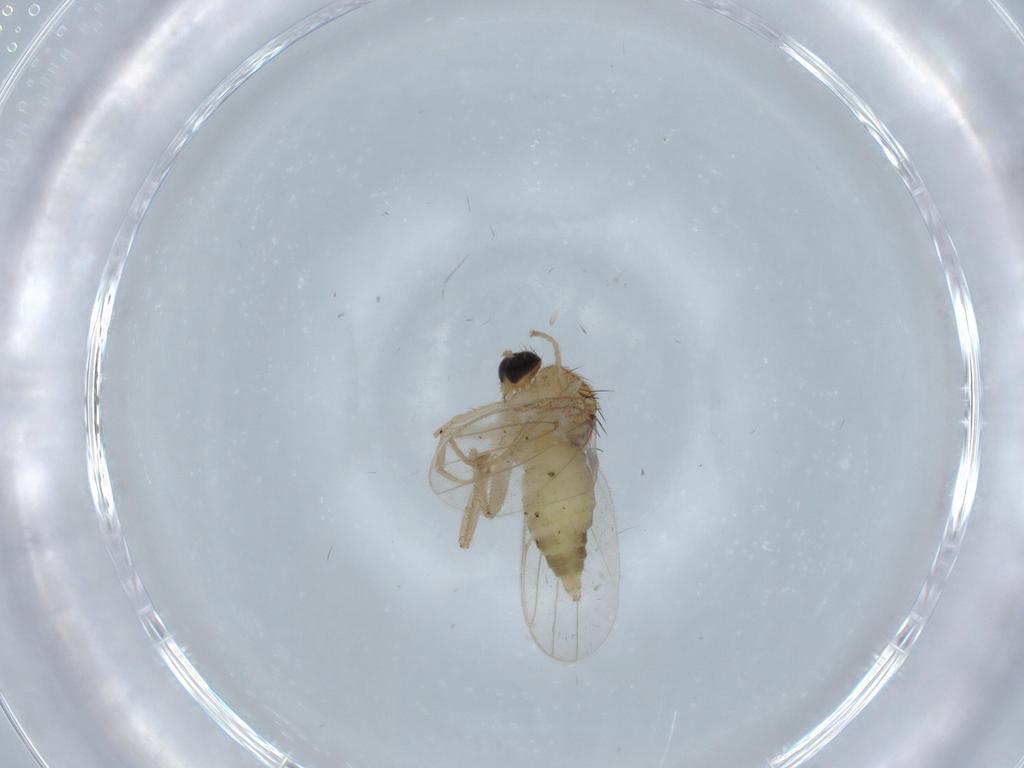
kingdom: Animalia
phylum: Arthropoda
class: Insecta
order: Diptera
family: Hybotidae
